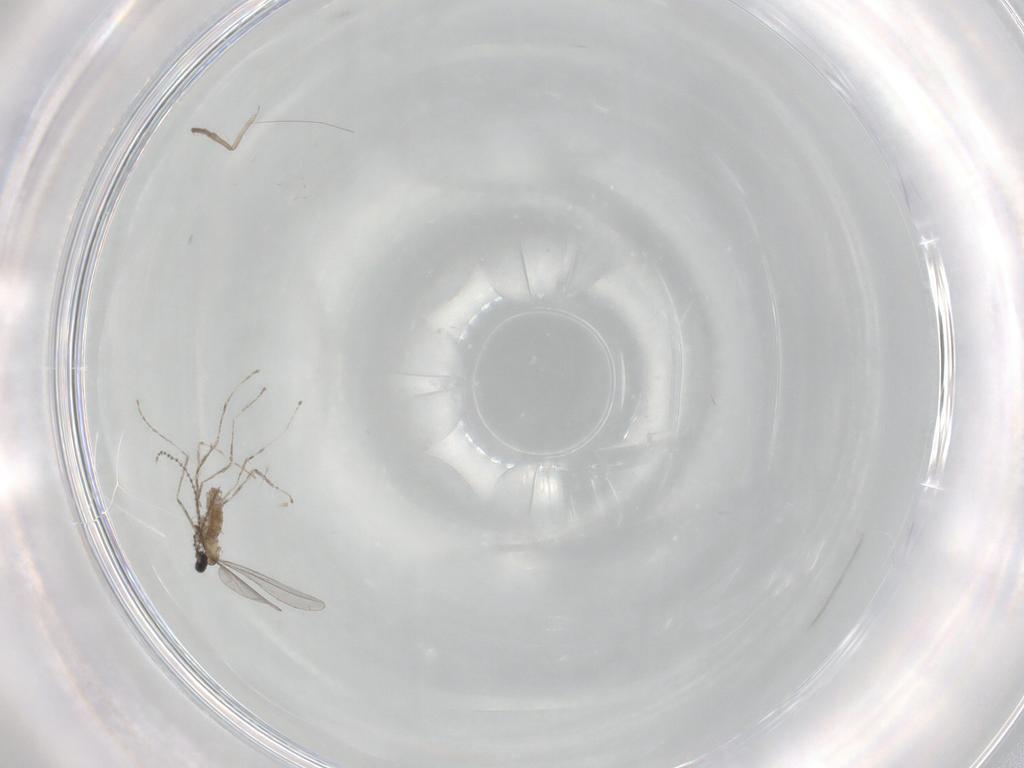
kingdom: Animalia
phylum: Arthropoda
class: Insecta
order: Diptera
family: Cecidomyiidae
